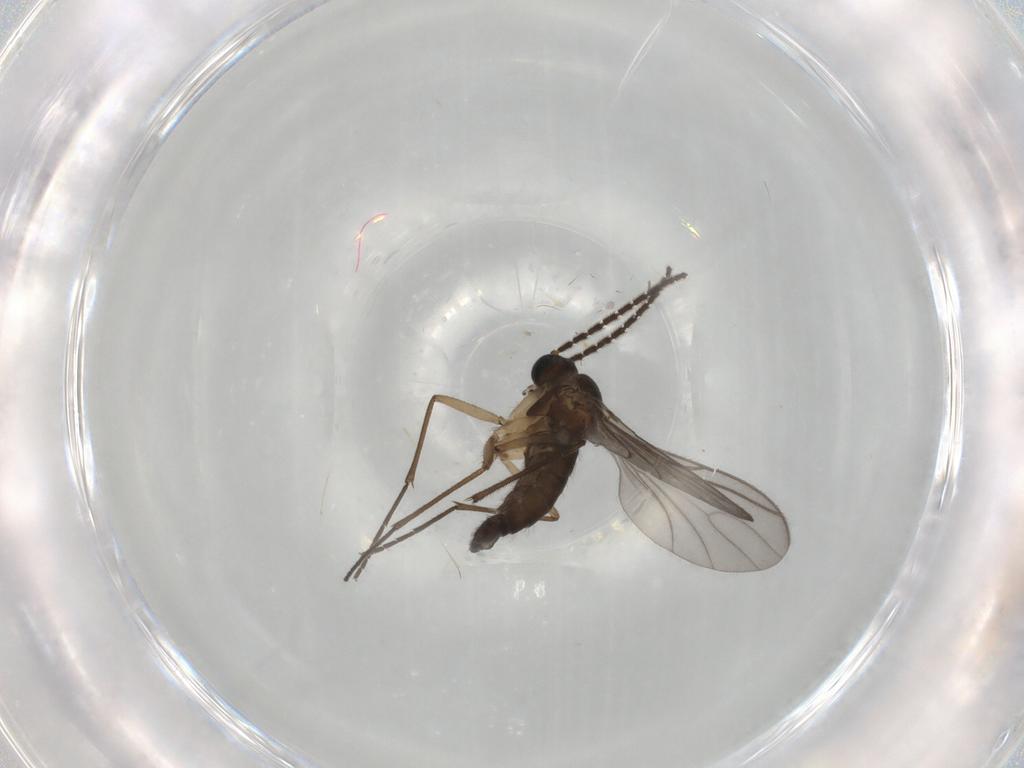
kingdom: Animalia
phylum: Arthropoda
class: Insecta
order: Diptera
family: Sciaridae
